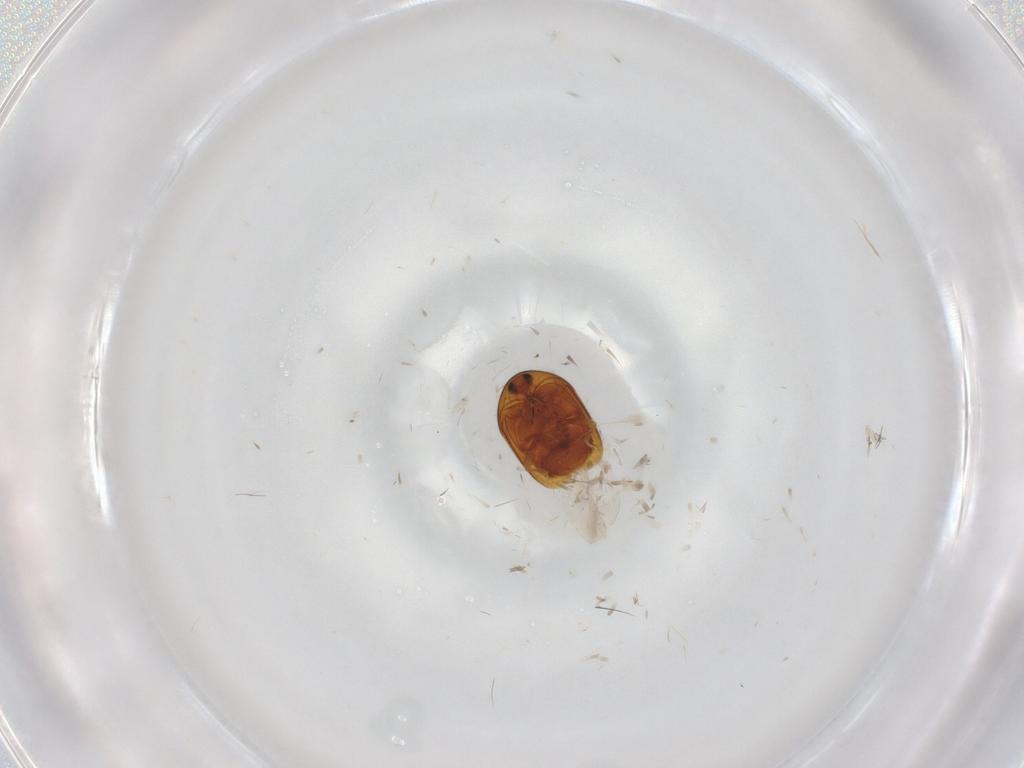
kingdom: Animalia
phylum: Arthropoda
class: Insecta
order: Coleoptera
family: Corylophidae
